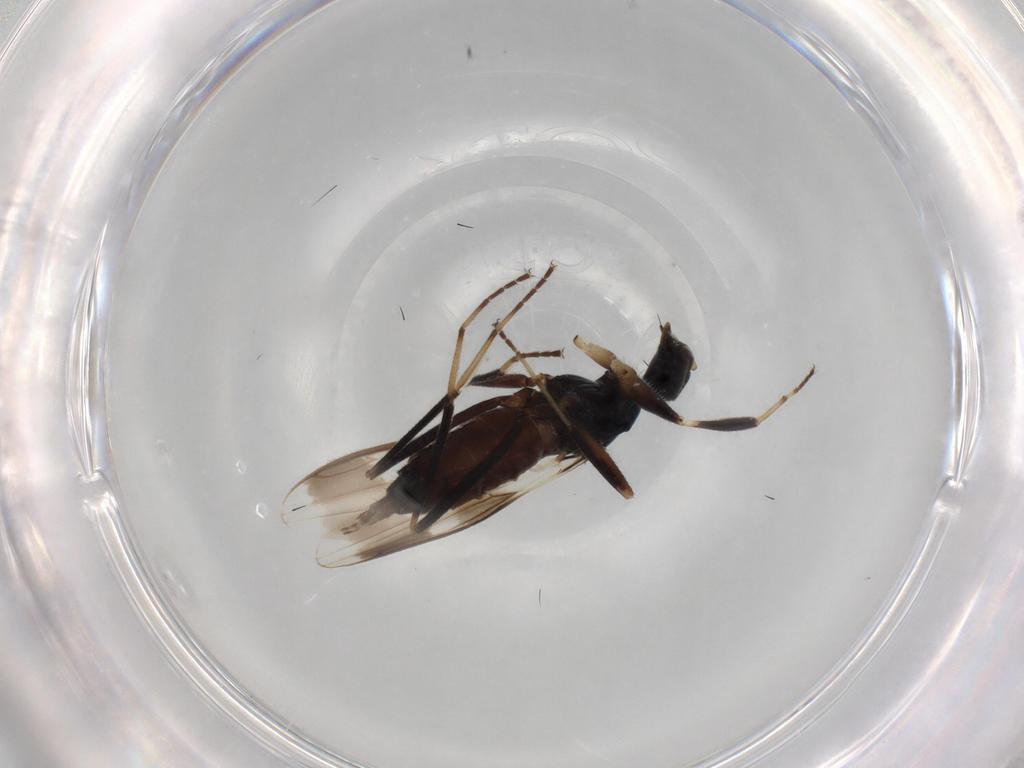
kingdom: Animalia
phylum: Arthropoda
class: Insecta
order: Diptera
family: Hybotidae
